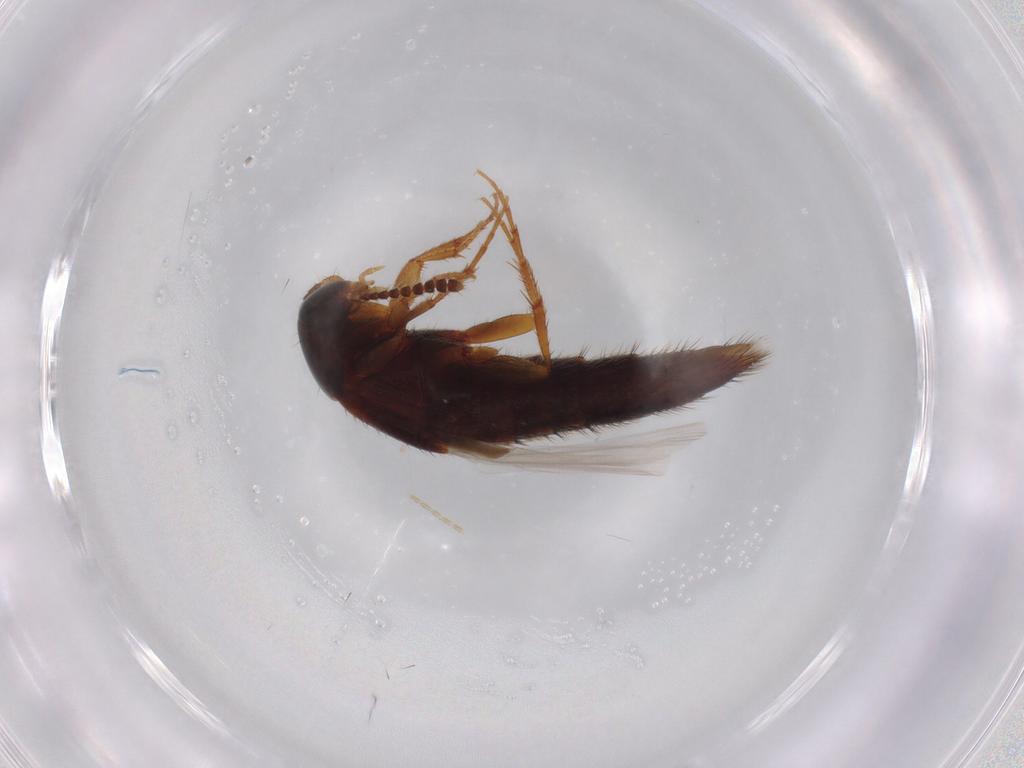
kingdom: Animalia
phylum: Arthropoda
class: Insecta
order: Coleoptera
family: Staphylinidae
